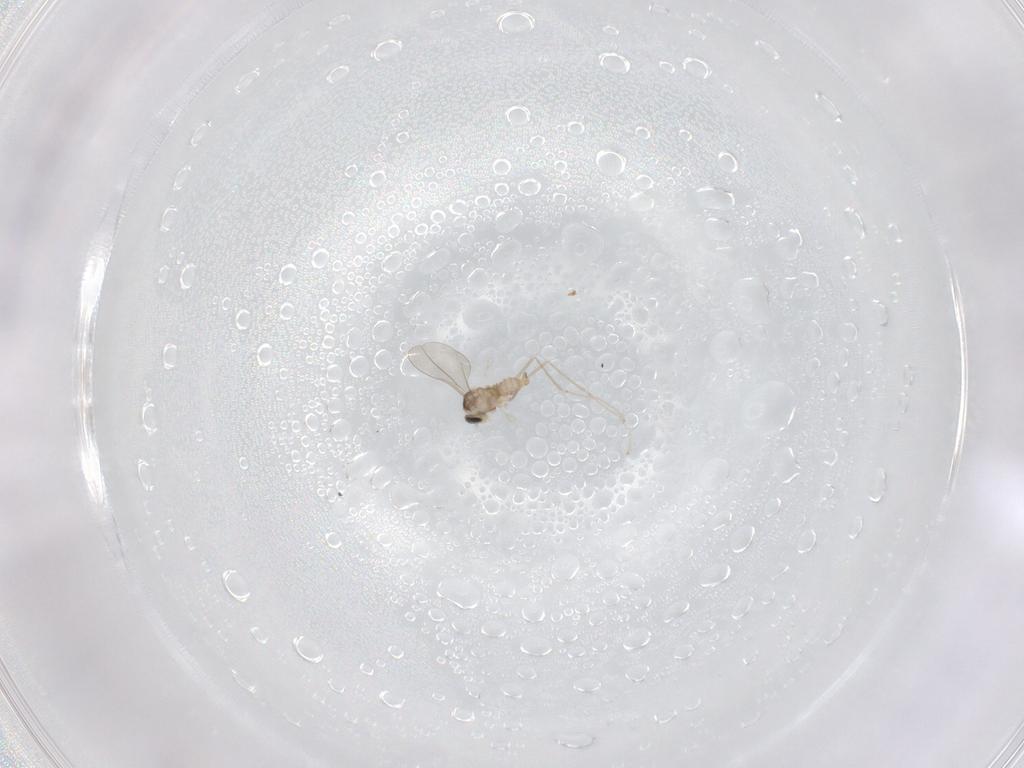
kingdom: Animalia
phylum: Arthropoda
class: Insecta
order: Diptera
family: Cecidomyiidae
